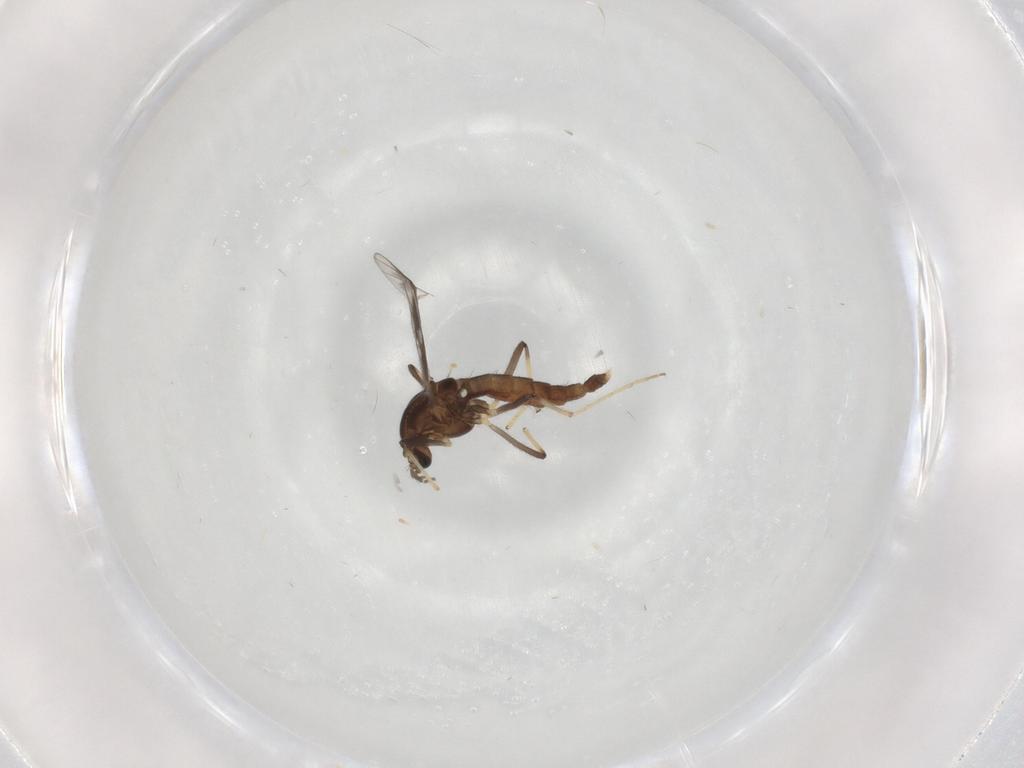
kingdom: Animalia
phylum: Arthropoda
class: Insecta
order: Diptera
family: Chironomidae
